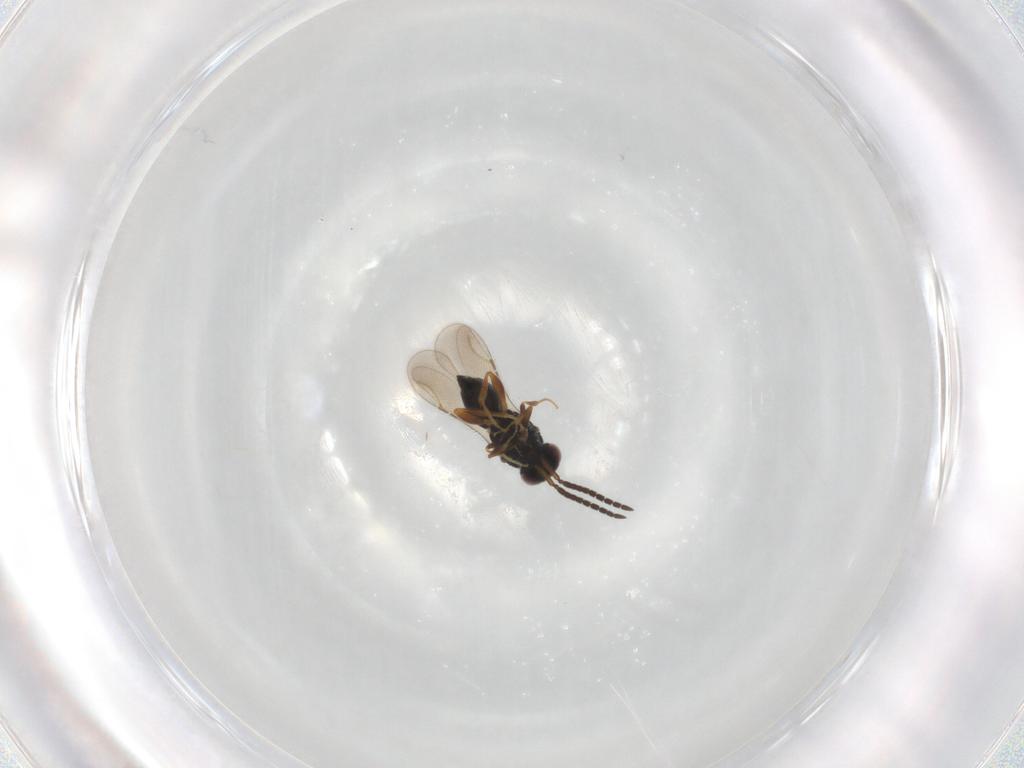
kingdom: Animalia
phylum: Arthropoda
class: Insecta
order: Hymenoptera
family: Ceraphronidae
